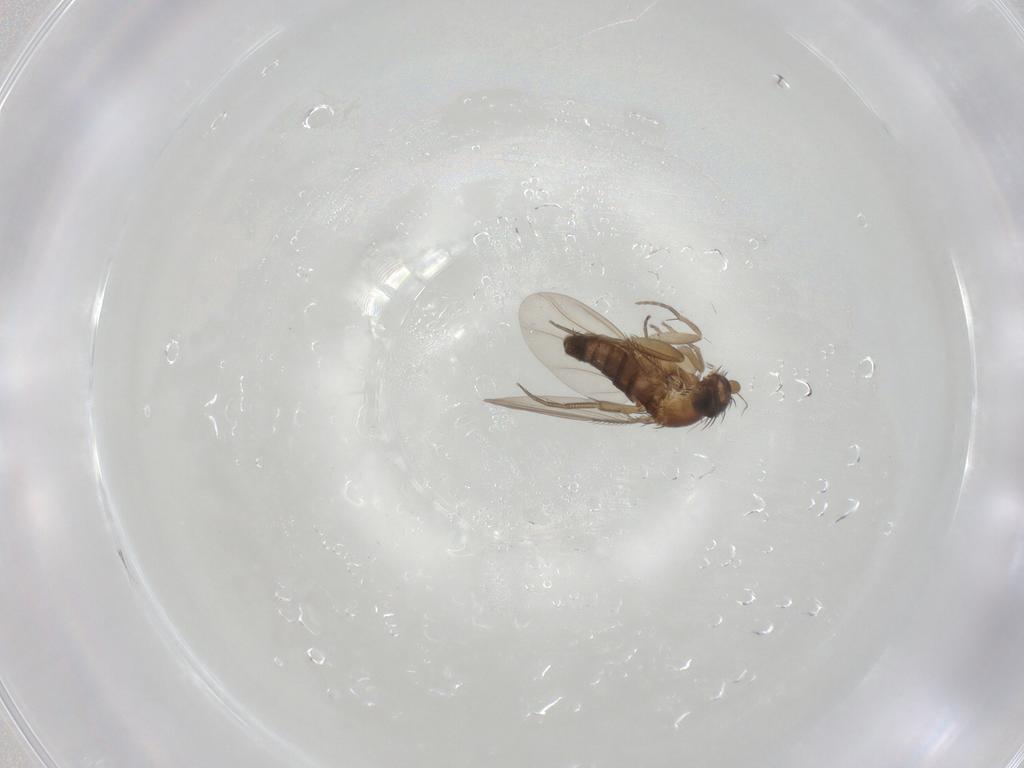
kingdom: Animalia
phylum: Arthropoda
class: Insecta
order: Diptera
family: Phoridae
